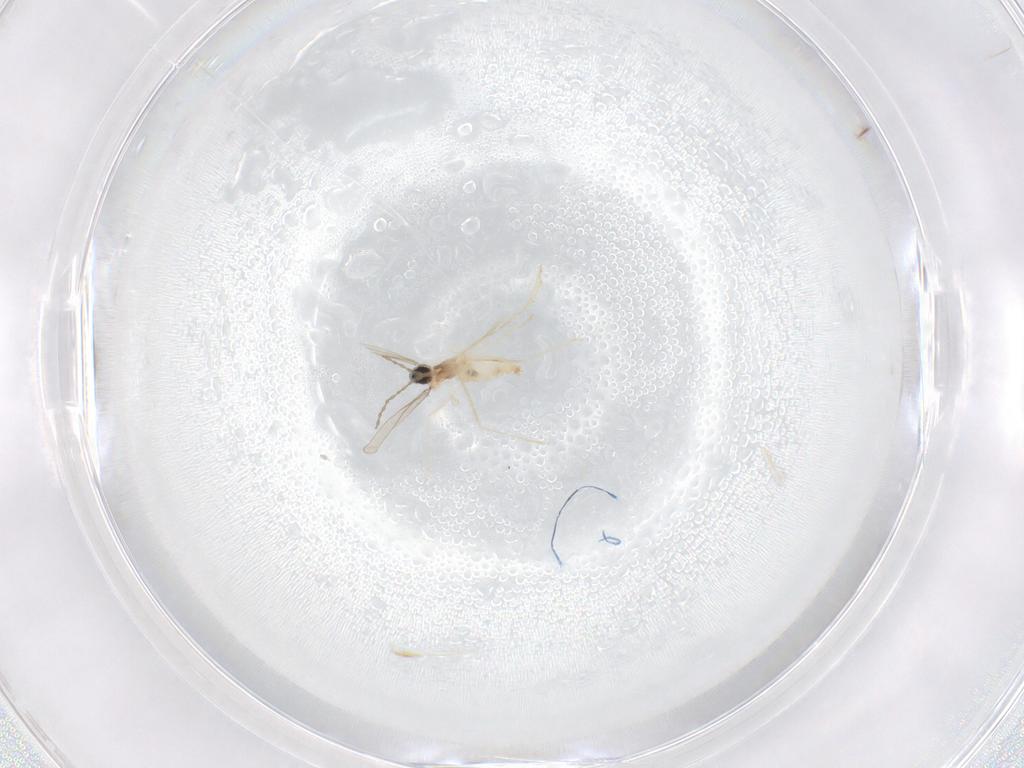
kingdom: Animalia
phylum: Arthropoda
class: Insecta
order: Diptera
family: Cecidomyiidae
